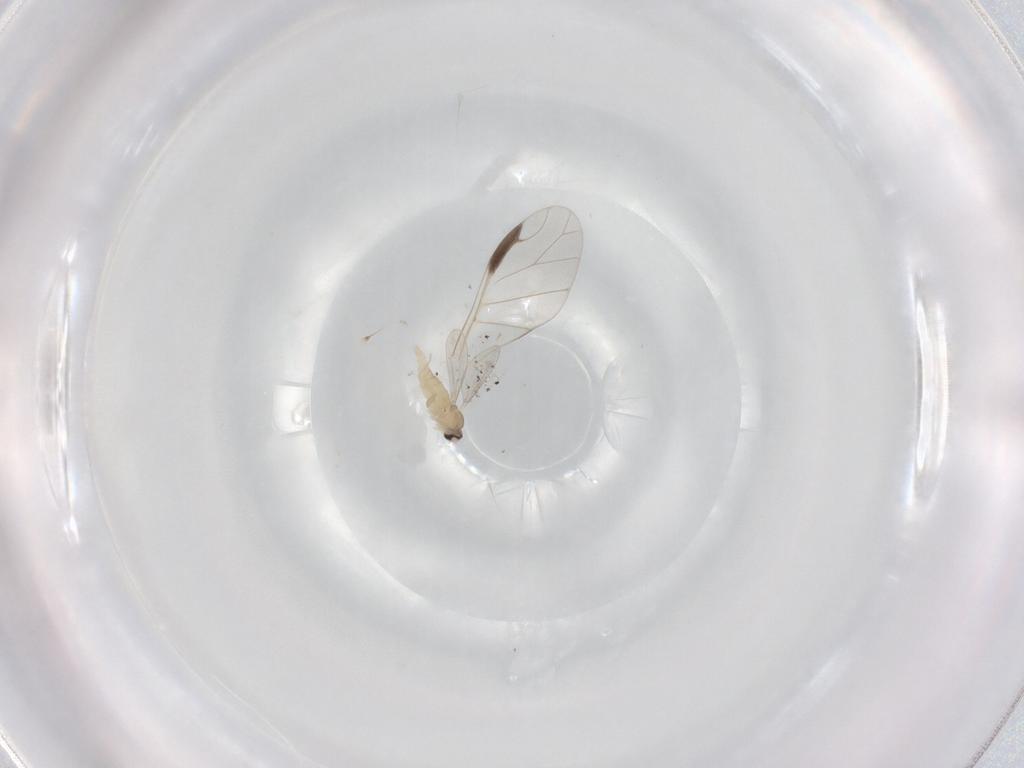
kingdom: Animalia
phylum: Arthropoda
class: Insecta
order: Diptera
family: Cecidomyiidae
